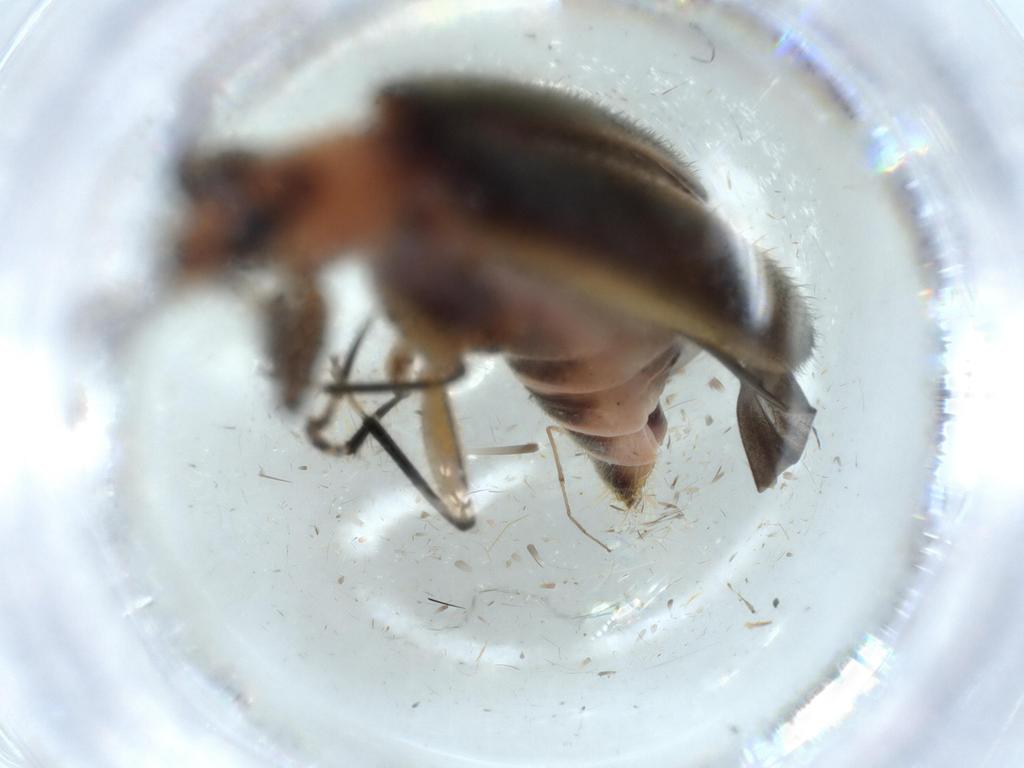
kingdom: Animalia
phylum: Arthropoda
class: Insecta
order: Coleoptera
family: Cleridae
